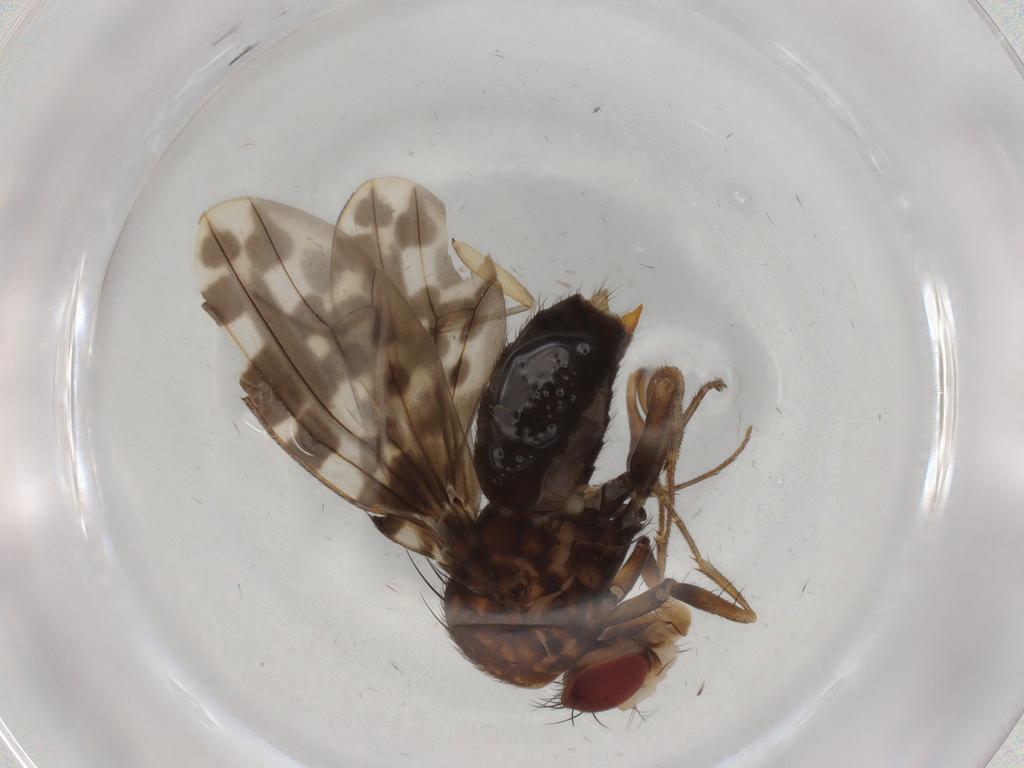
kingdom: Animalia
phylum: Arthropoda
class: Insecta
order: Diptera
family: Drosophilidae
